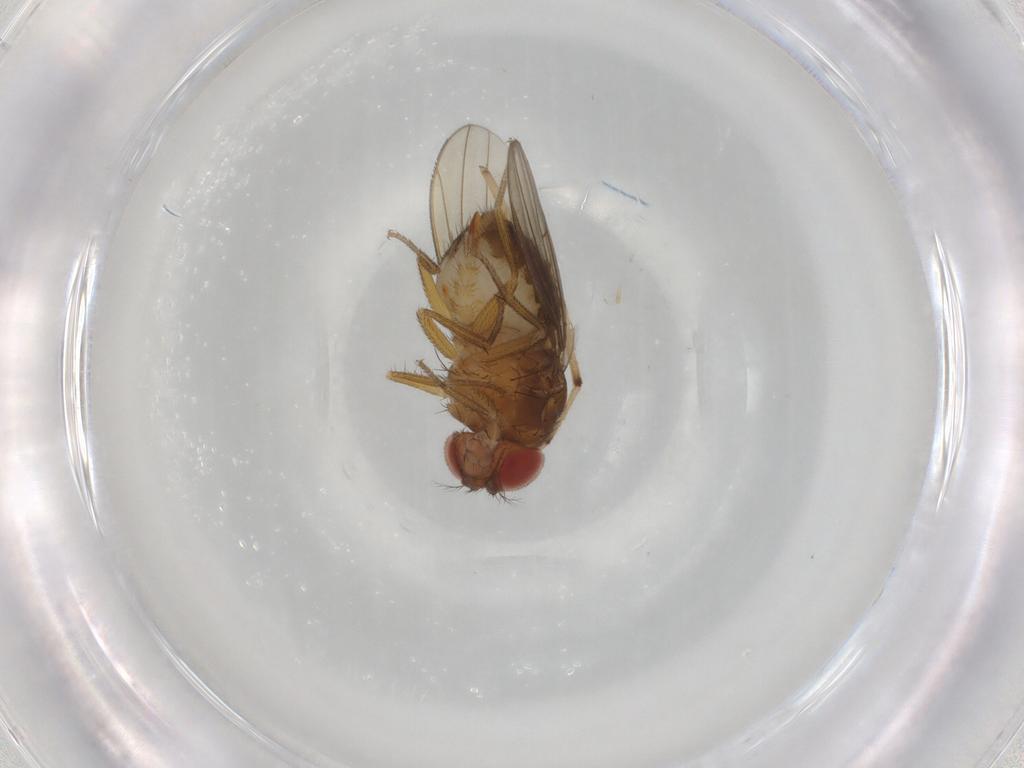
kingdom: Animalia
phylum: Arthropoda
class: Insecta
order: Diptera
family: Drosophilidae
